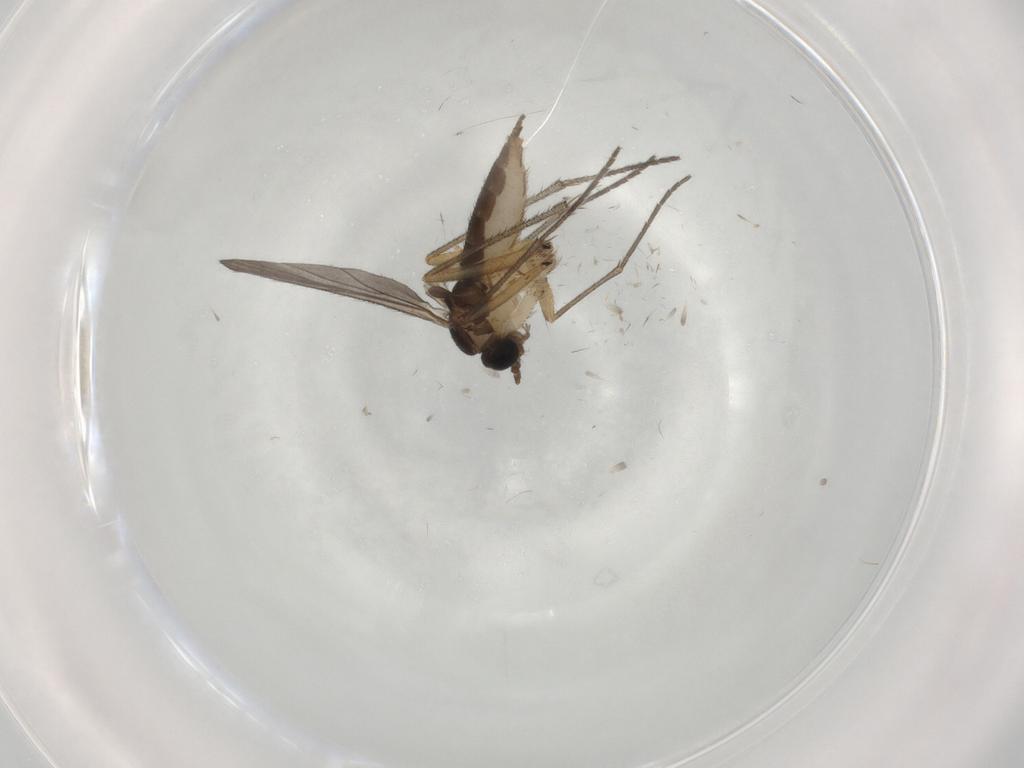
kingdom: Animalia
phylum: Arthropoda
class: Insecta
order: Diptera
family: Sciaridae
